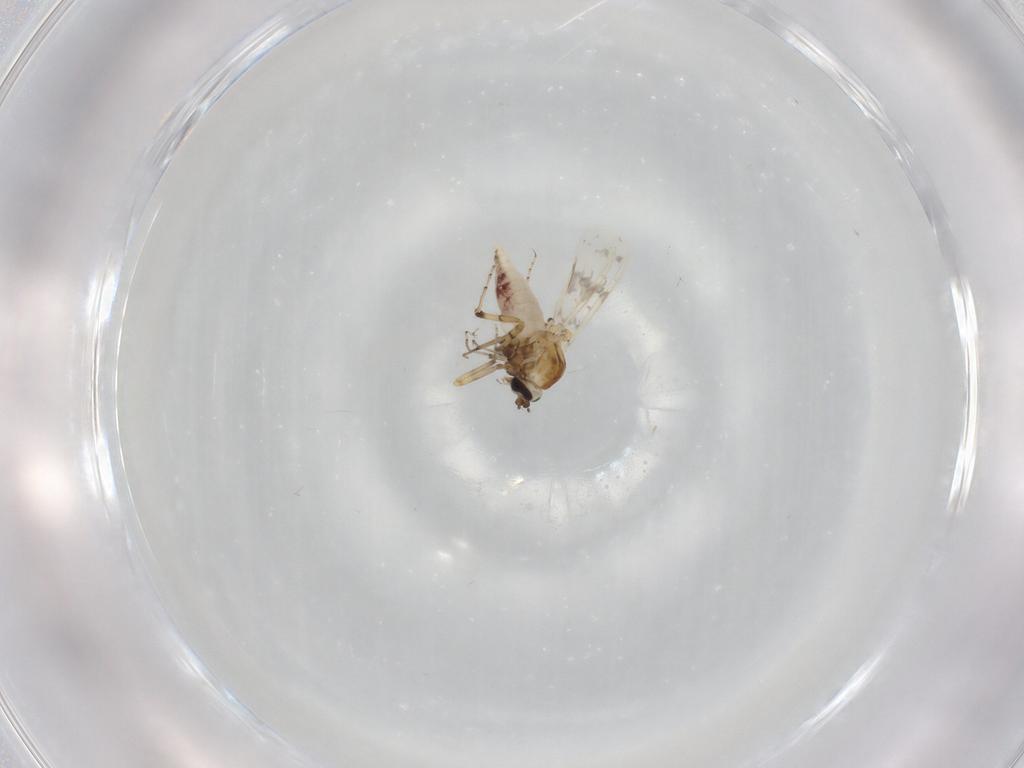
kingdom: Animalia
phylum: Arthropoda
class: Insecta
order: Diptera
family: Ceratopogonidae
